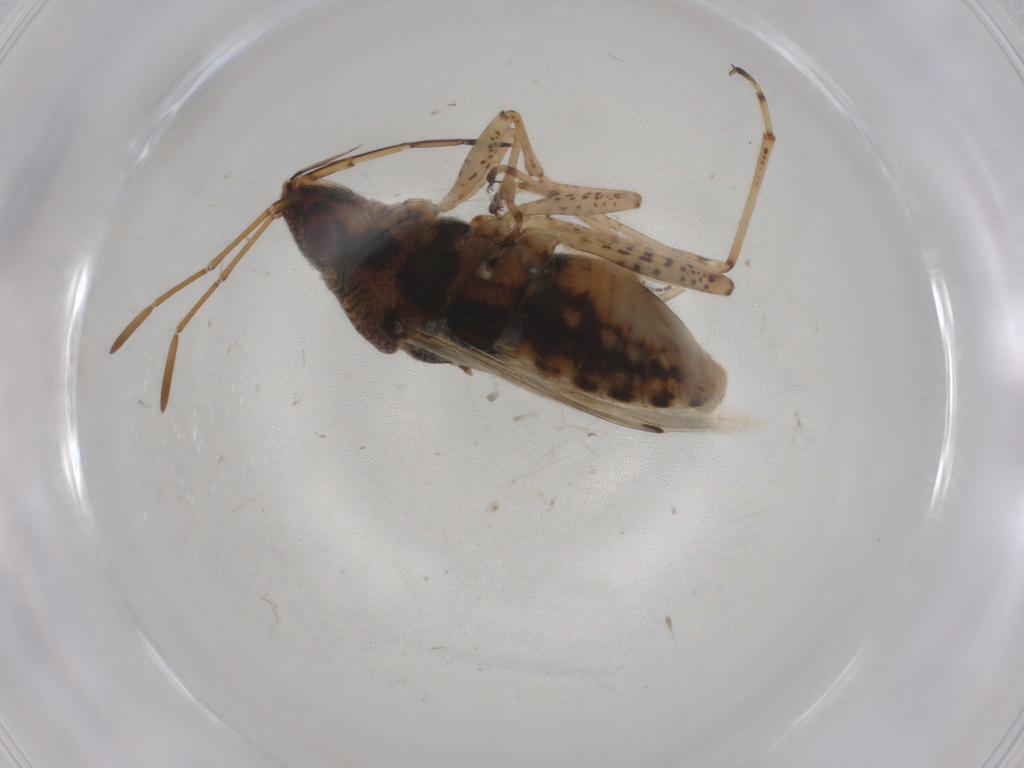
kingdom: Animalia
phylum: Arthropoda
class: Insecta
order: Hemiptera
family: Lygaeidae
